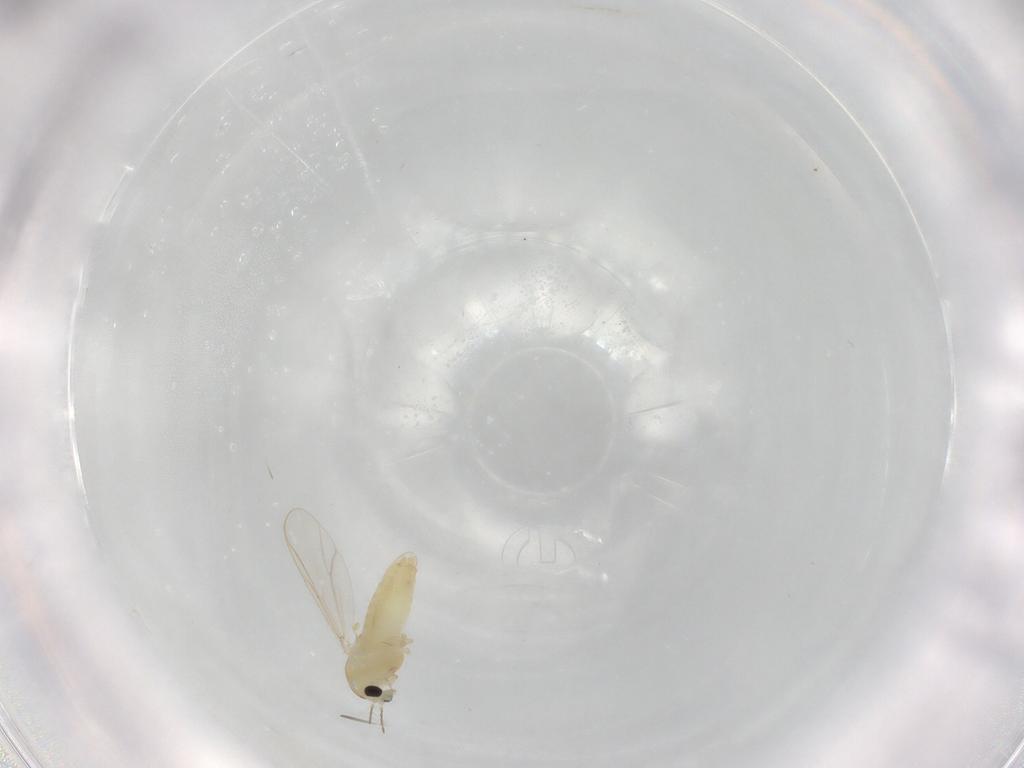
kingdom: Animalia
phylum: Arthropoda
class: Insecta
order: Diptera
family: Chironomidae
